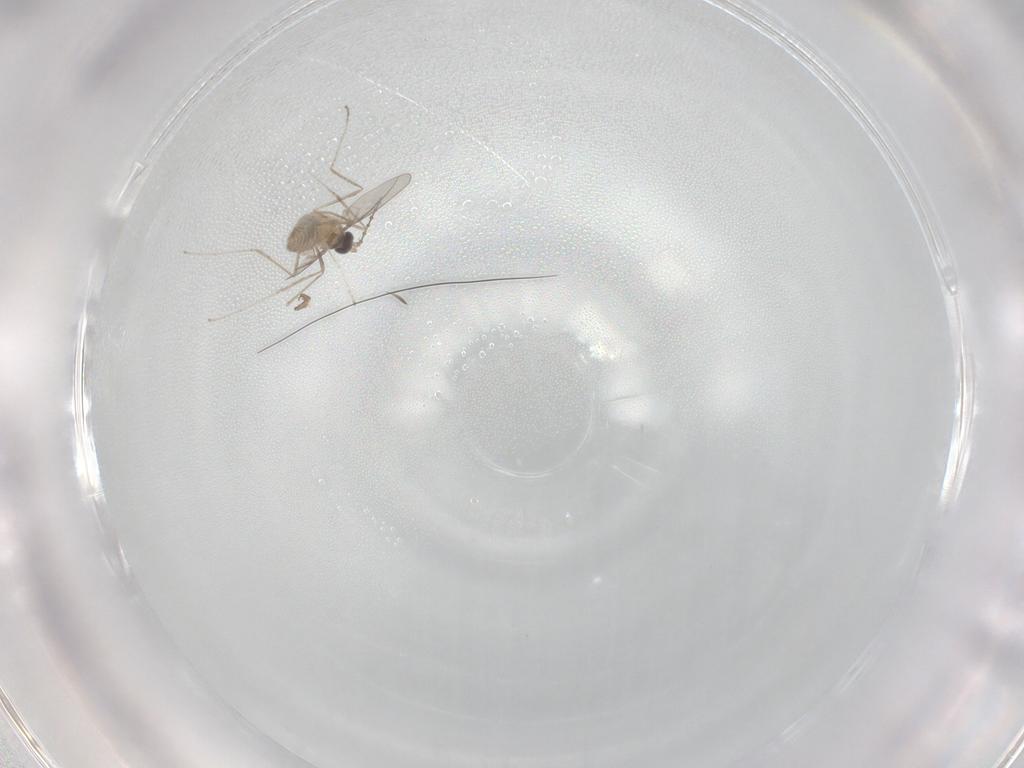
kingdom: Animalia
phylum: Arthropoda
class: Insecta
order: Diptera
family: Cecidomyiidae
